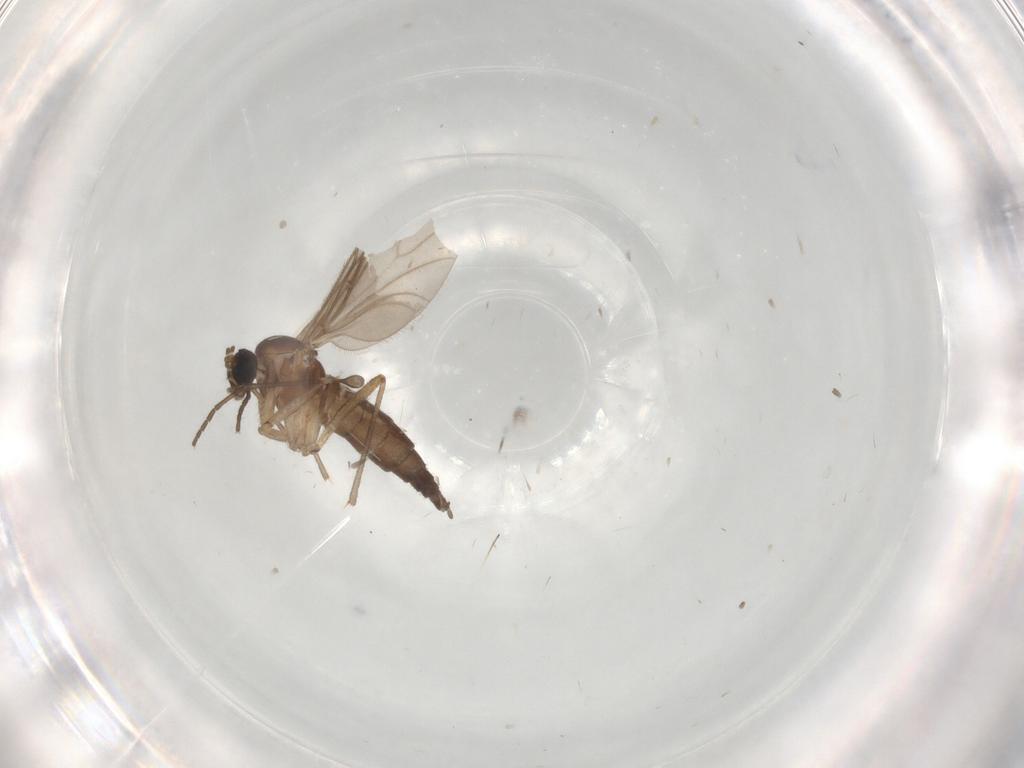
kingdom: Animalia
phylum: Arthropoda
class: Insecta
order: Diptera
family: Sciaridae
